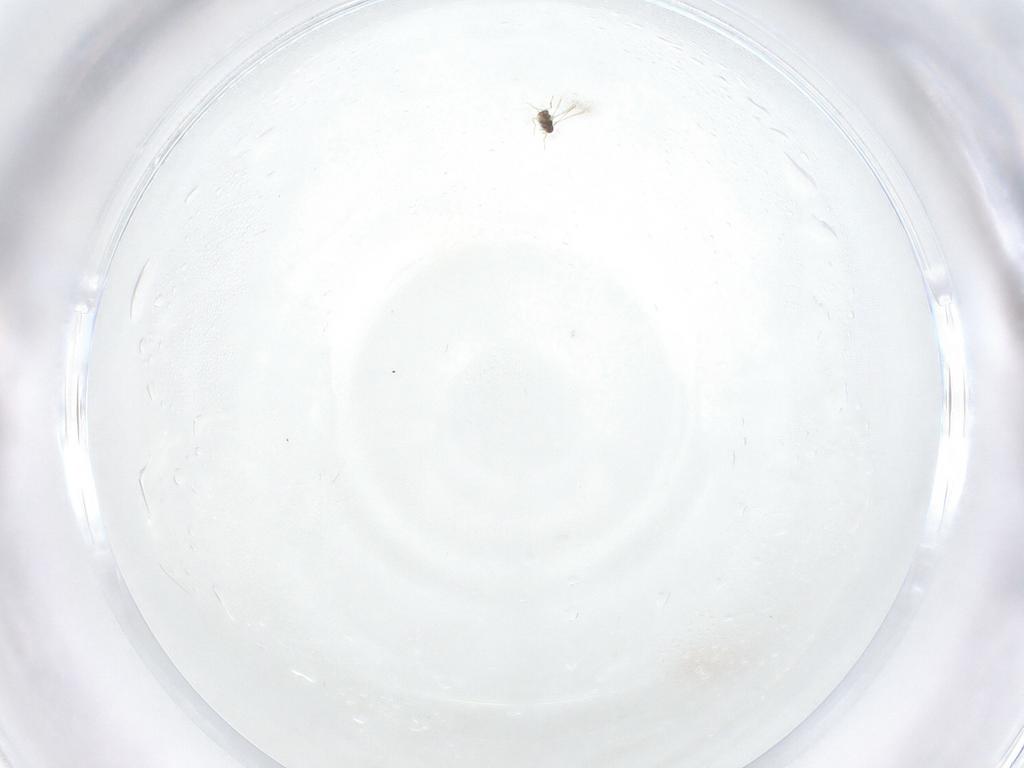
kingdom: Animalia
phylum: Arthropoda
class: Insecta
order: Hymenoptera
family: Mymaridae
